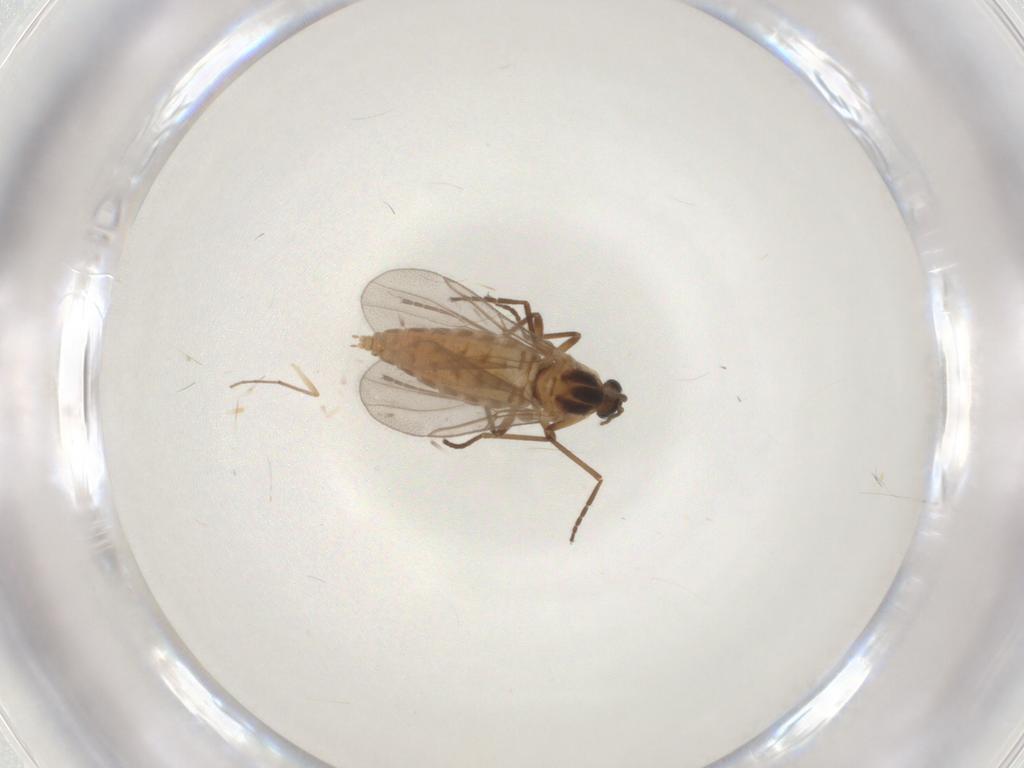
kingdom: Animalia
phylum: Arthropoda
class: Insecta
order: Diptera
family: Cecidomyiidae
